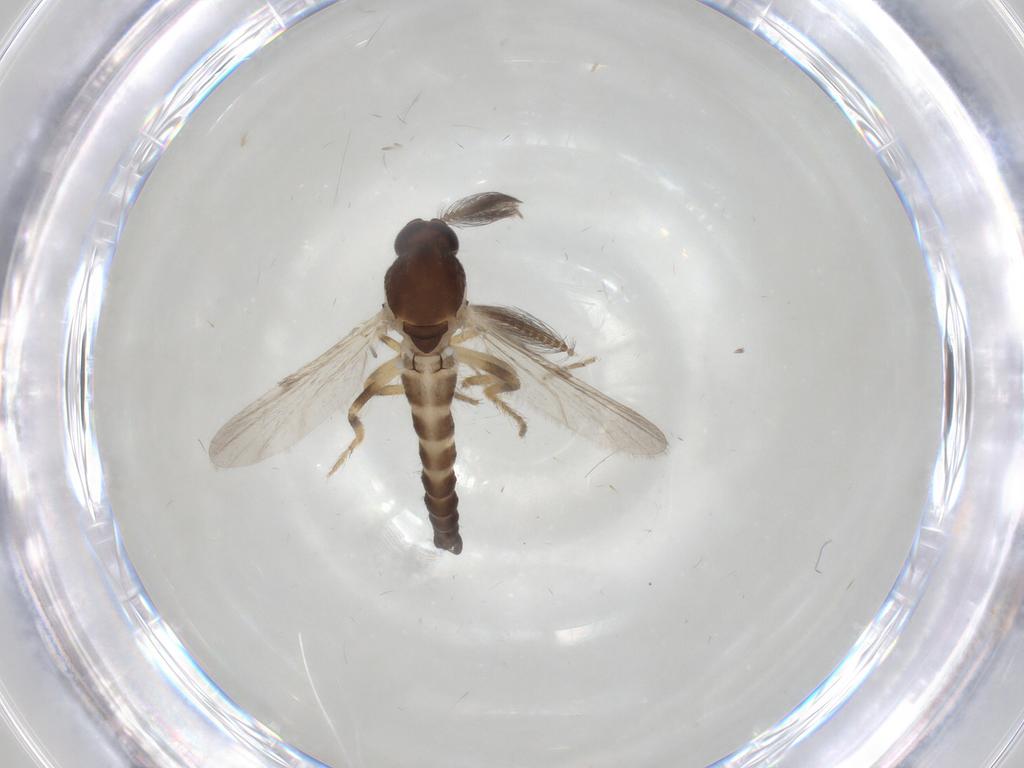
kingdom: Animalia
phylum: Arthropoda
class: Insecta
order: Diptera
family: Ceratopogonidae
